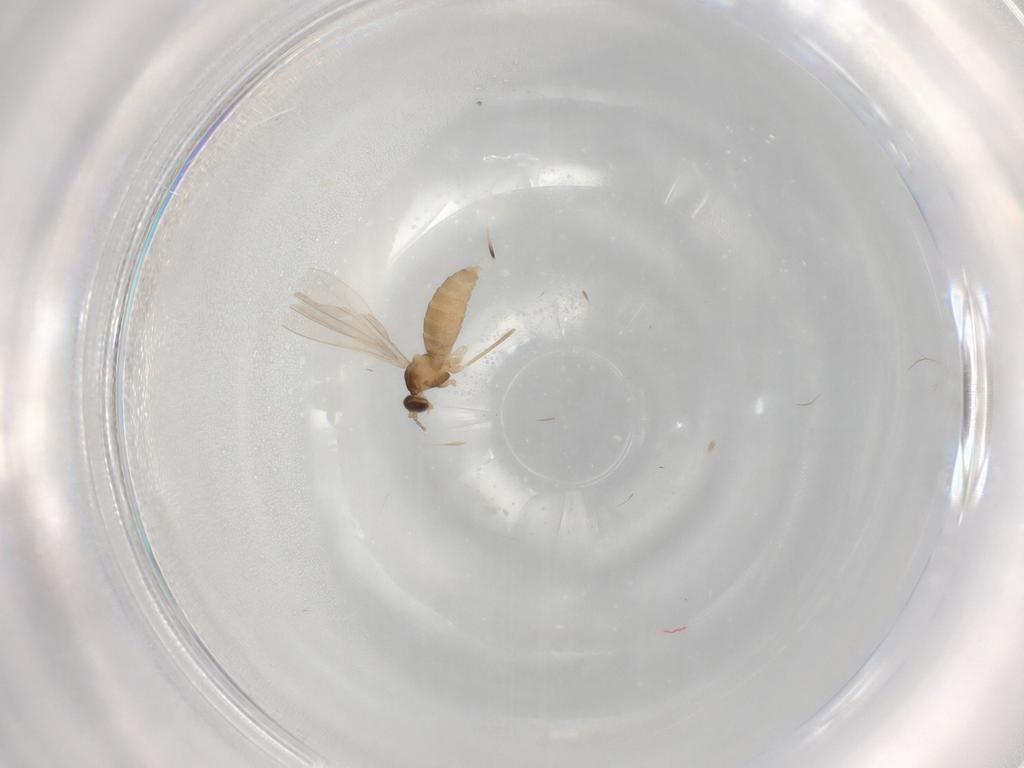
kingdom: Animalia
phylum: Arthropoda
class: Insecta
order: Diptera
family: Cecidomyiidae
